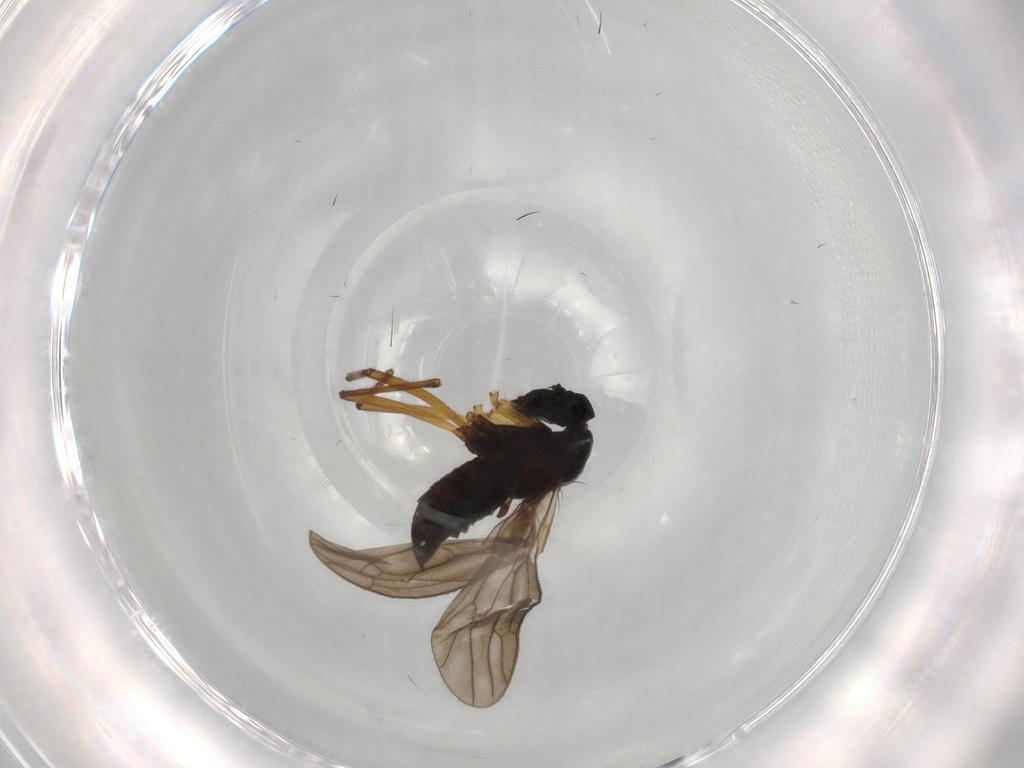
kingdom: Animalia
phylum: Arthropoda
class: Insecta
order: Diptera
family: Empididae
